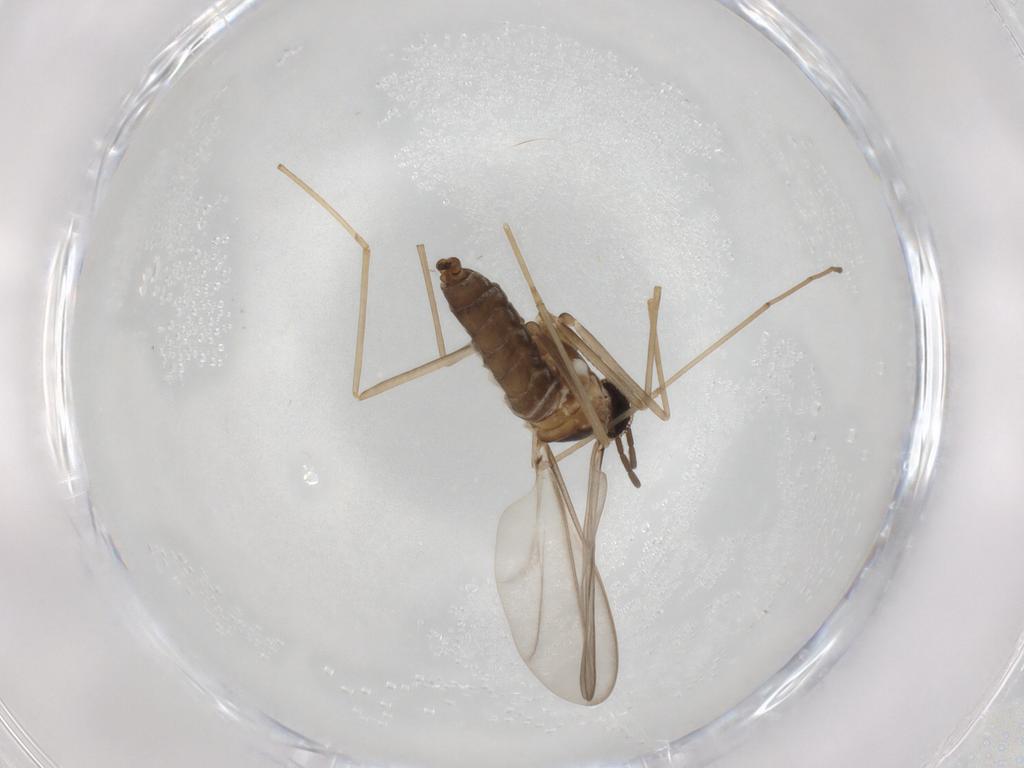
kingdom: Animalia
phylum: Arthropoda
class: Insecta
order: Diptera
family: Cecidomyiidae
